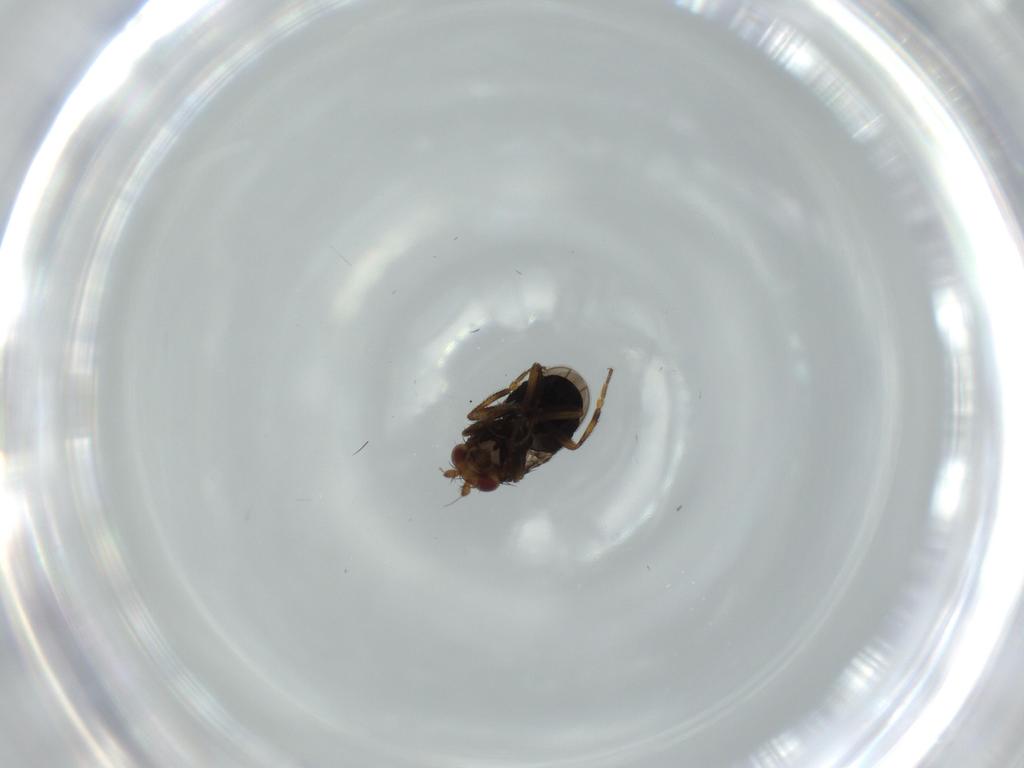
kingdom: Animalia
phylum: Arthropoda
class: Insecta
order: Diptera
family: Sphaeroceridae
